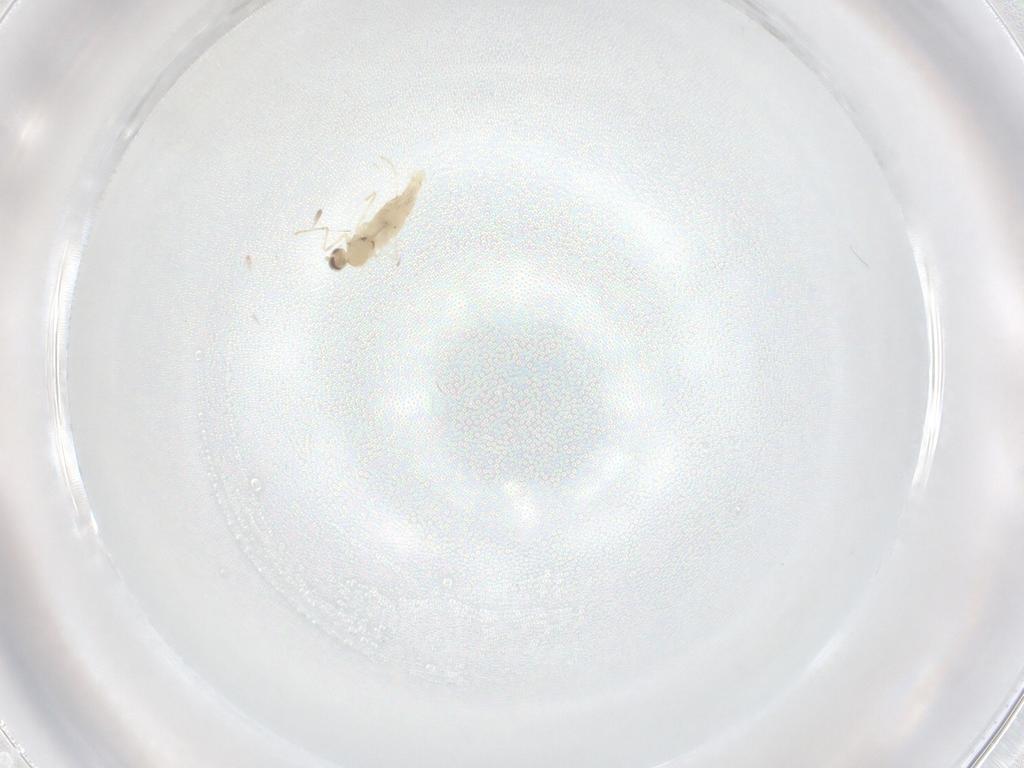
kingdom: Animalia
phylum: Arthropoda
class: Insecta
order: Diptera
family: Cecidomyiidae
